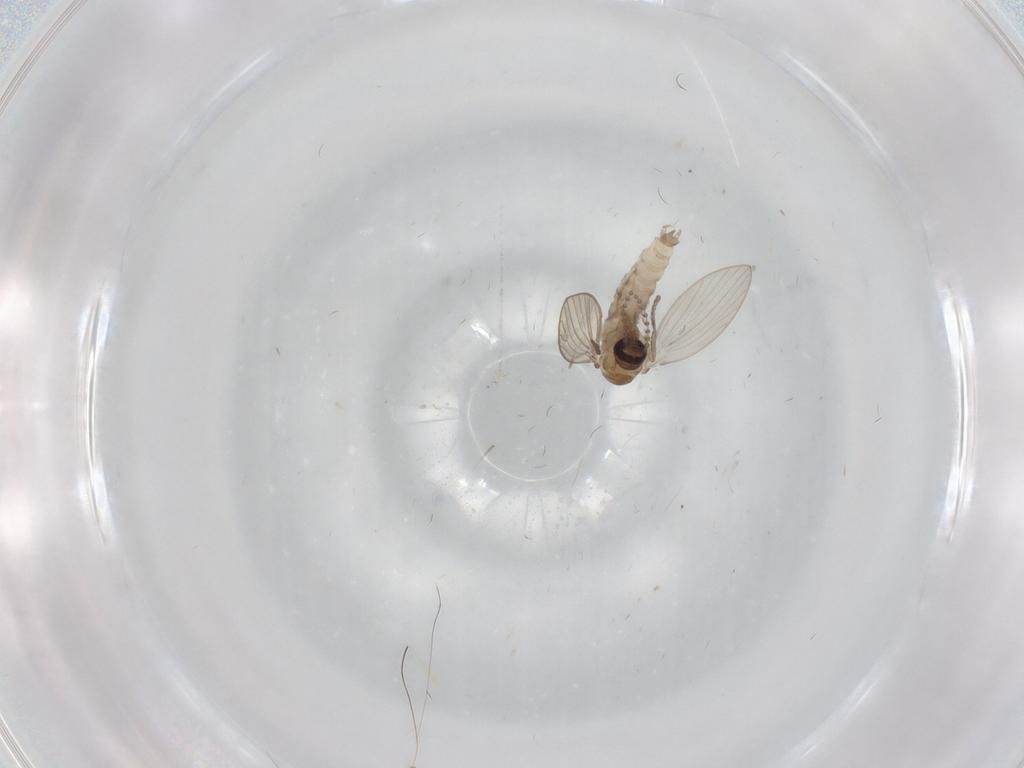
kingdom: Animalia
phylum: Arthropoda
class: Insecta
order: Diptera
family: Psychodidae
